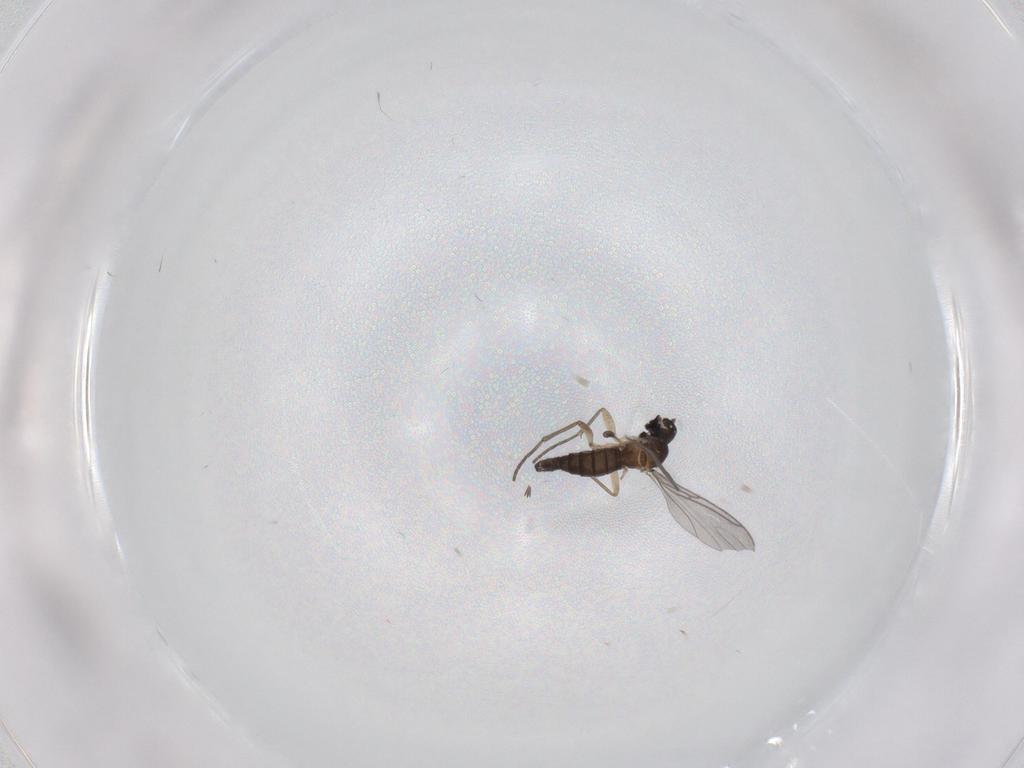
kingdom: Animalia
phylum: Arthropoda
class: Insecta
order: Diptera
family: Sciaridae
